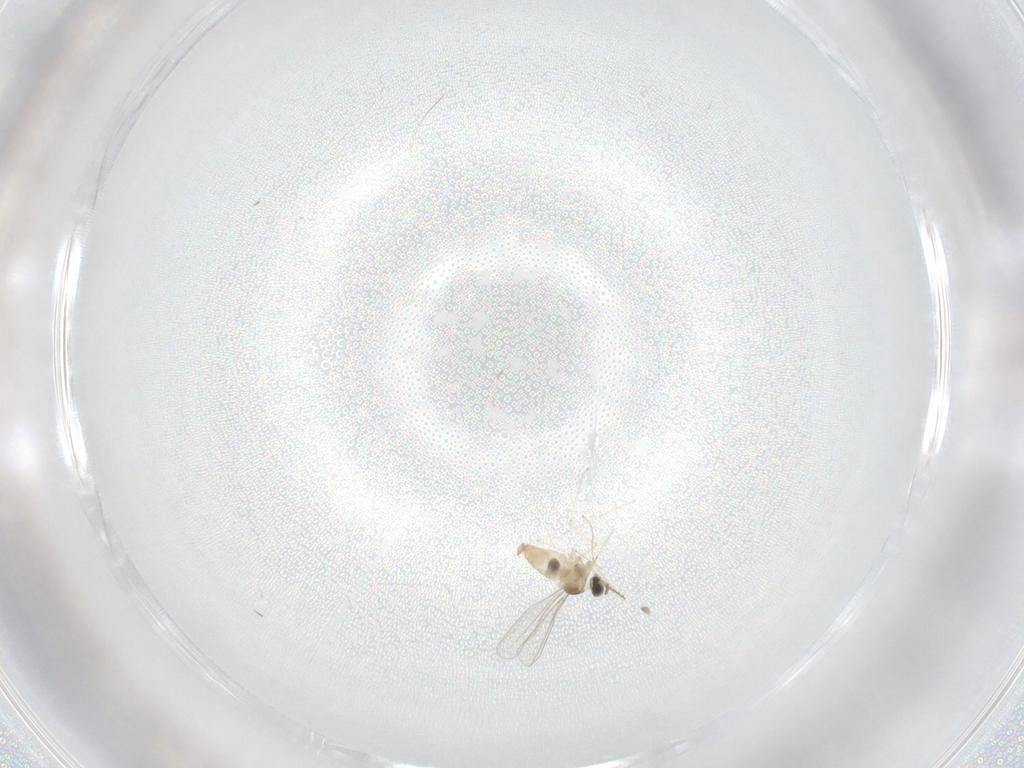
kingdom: Animalia
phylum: Arthropoda
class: Insecta
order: Diptera
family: Cecidomyiidae
